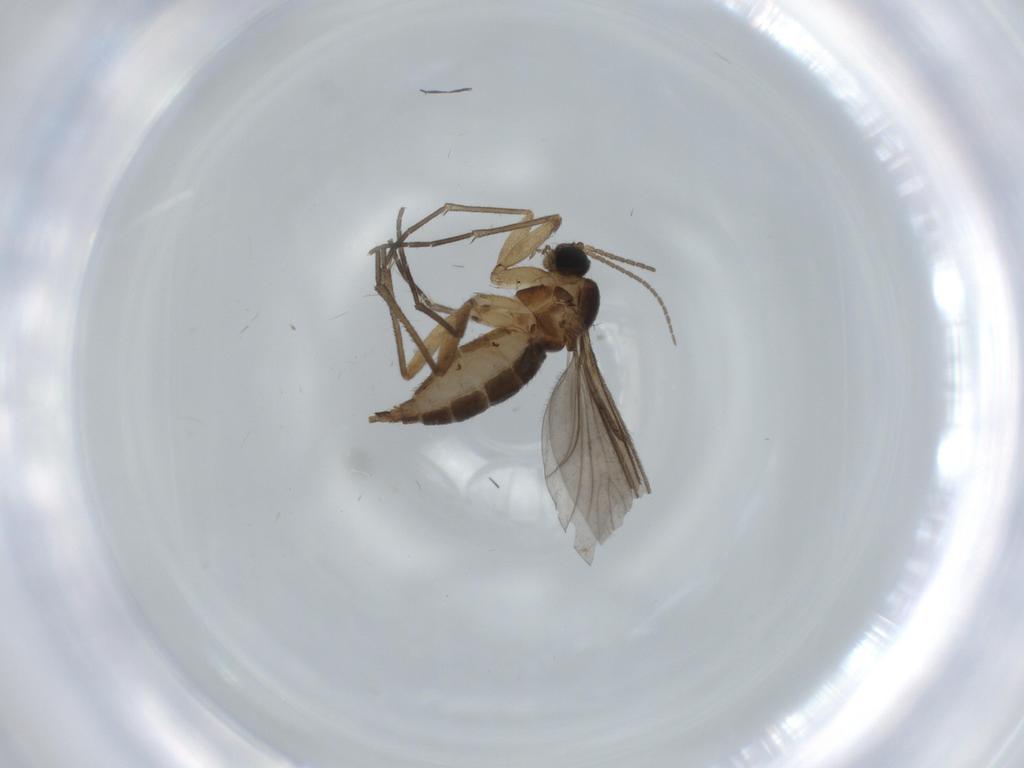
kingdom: Animalia
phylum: Arthropoda
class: Insecta
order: Diptera
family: Sciaridae
